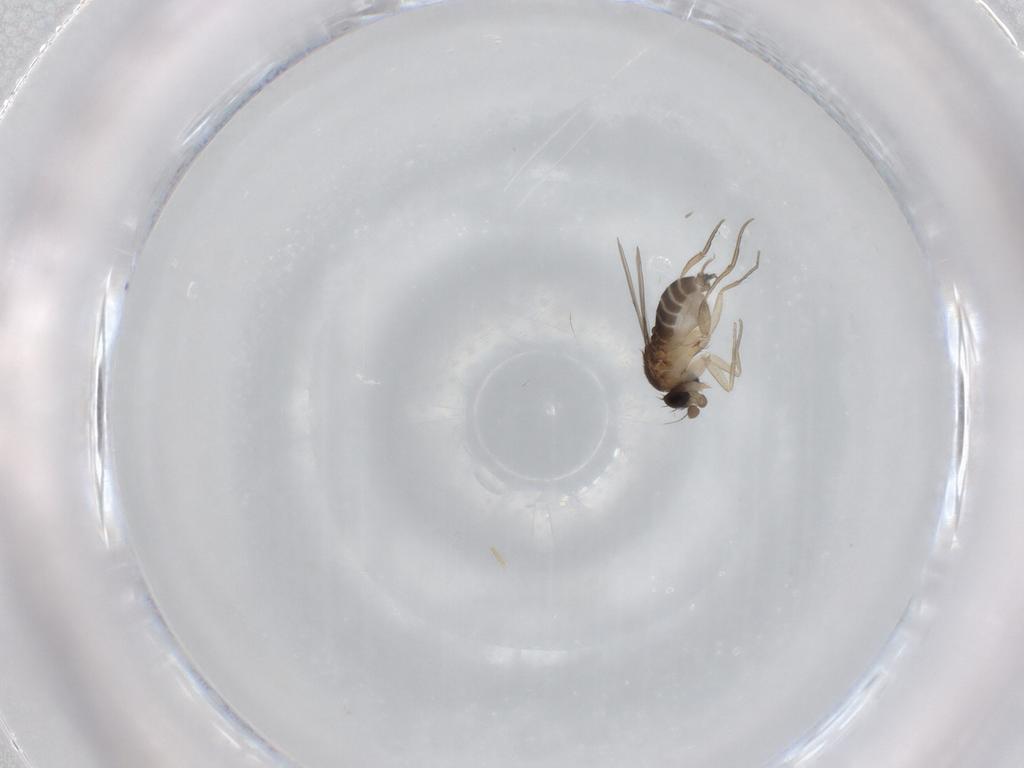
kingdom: Animalia
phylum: Arthropoda
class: Insecta
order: Diptera
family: Phoridae
